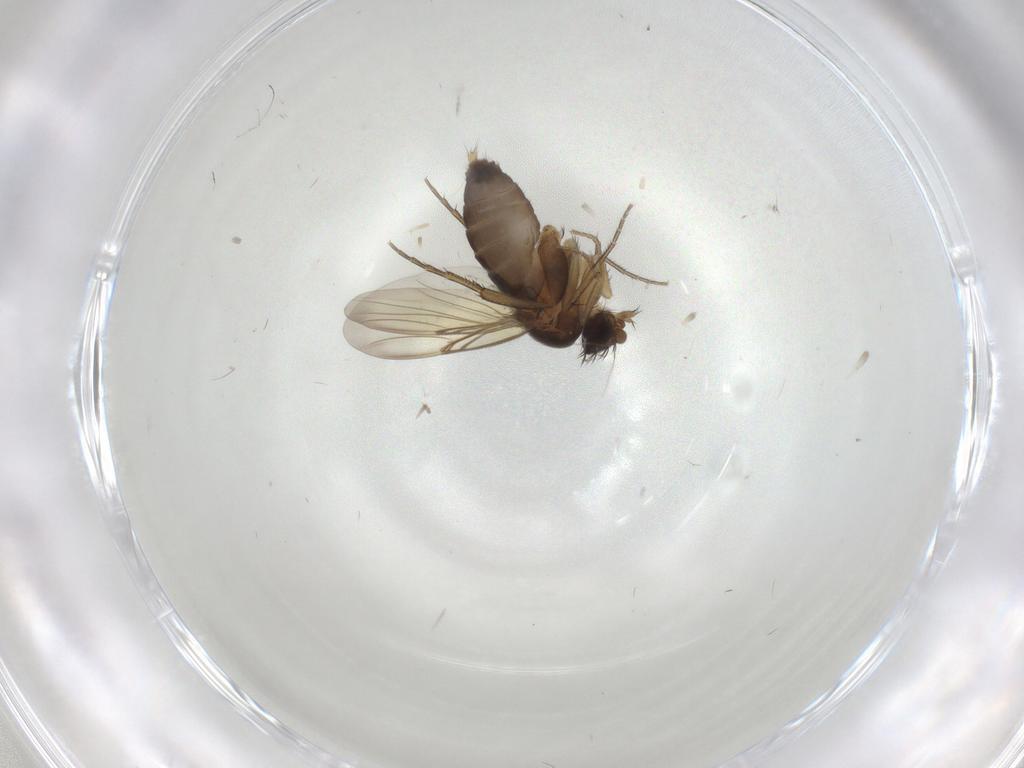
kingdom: Animalia
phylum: Arthropoda
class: Insecta
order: Diptera
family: Phoridae
